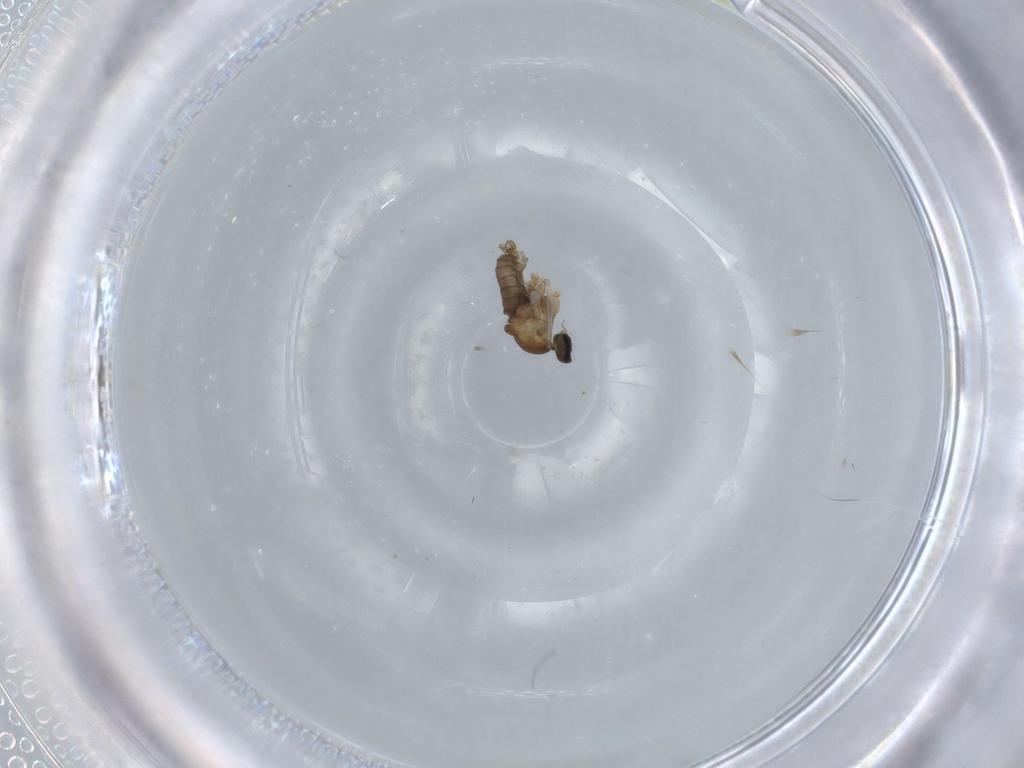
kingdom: Animalia
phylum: Arthropoda
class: Insecta
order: Diptera
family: Cecidomyiidae
